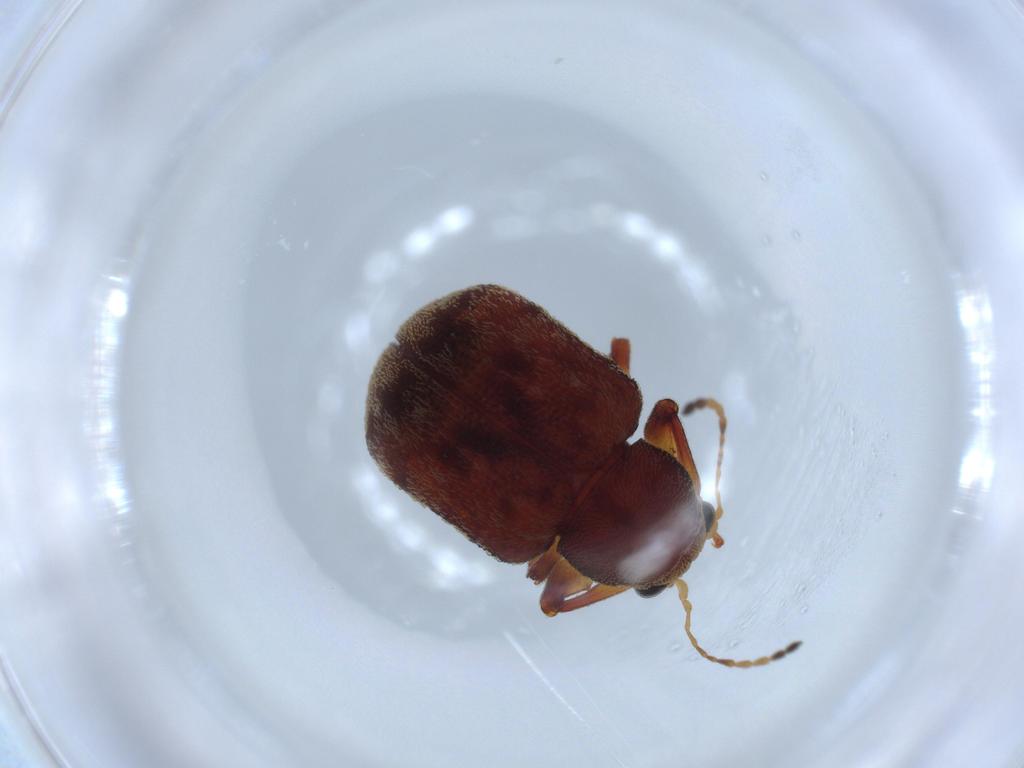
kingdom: Animalia
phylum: Arthropoda
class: Insecta
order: Coleoptera
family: Chrysomelidae
